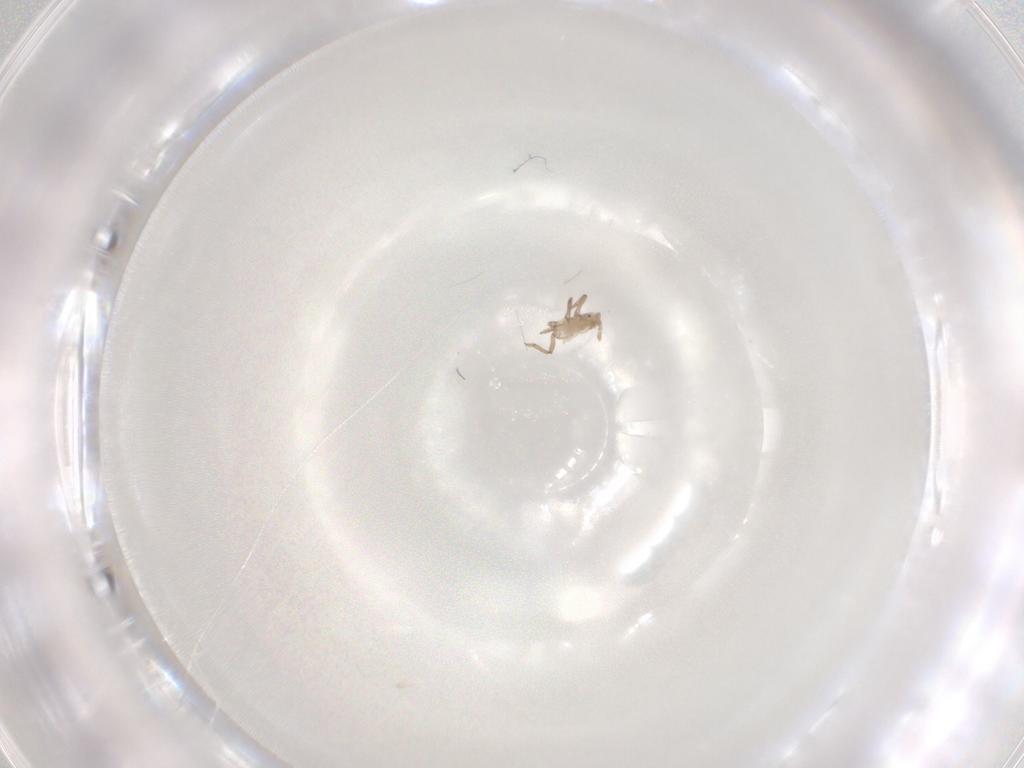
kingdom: Animalia
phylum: Arthropoda
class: Insecta
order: Hemiptera
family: Aphididae
